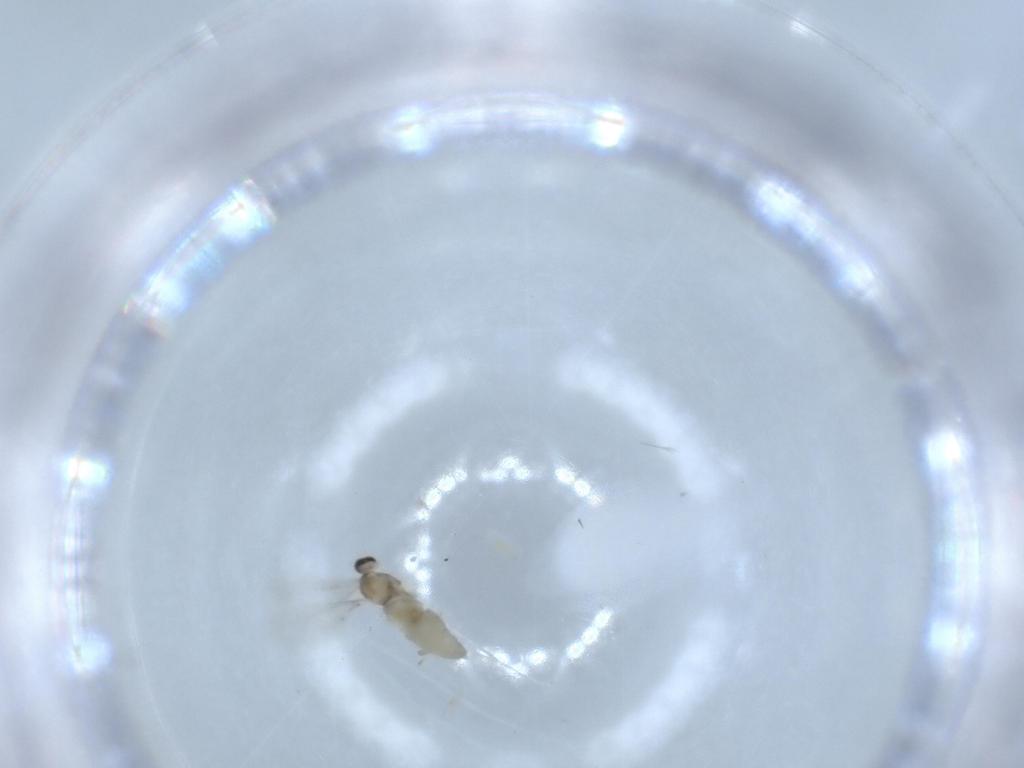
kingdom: Animalia
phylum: Arthropoda
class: Insecta
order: Diptera
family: Cecidomyiidae
